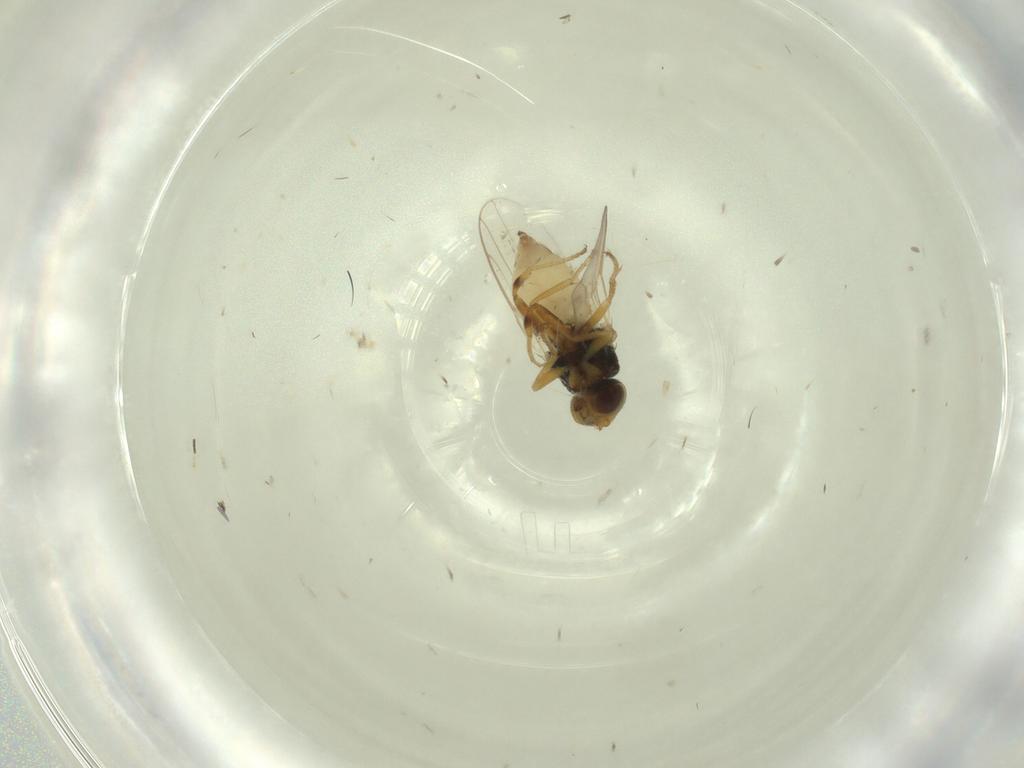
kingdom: Animalia
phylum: Arthropoda
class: Insecta
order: Diptera
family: Chloropidae
